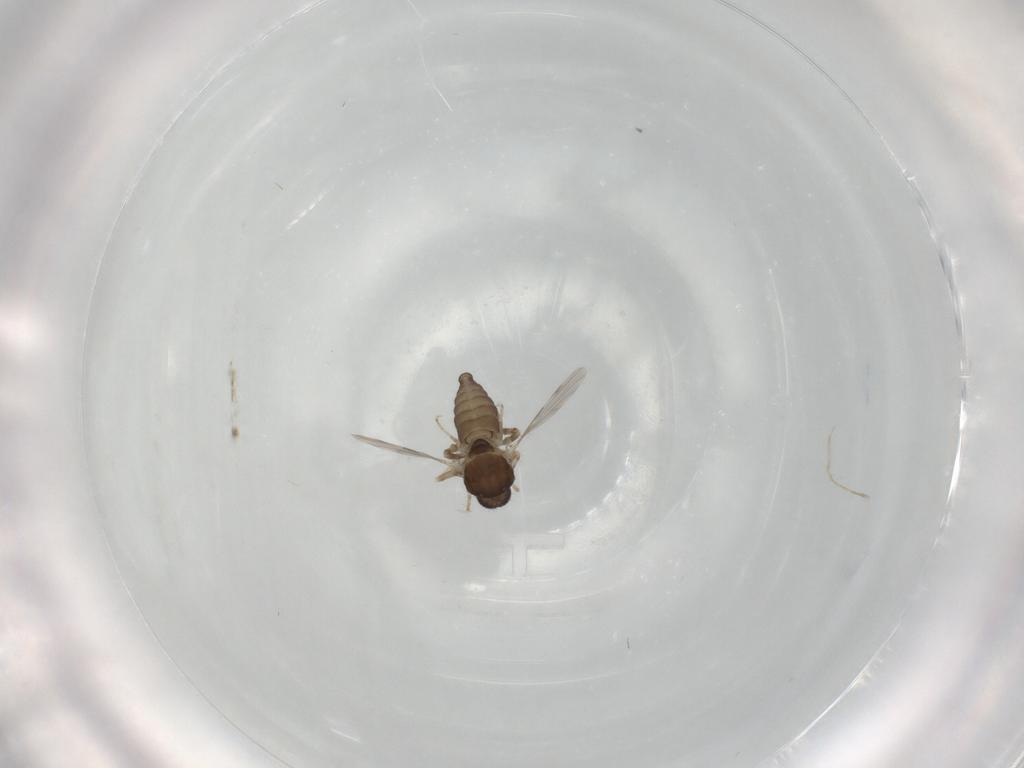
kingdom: Animalia
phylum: Arthropoda
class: Insecta
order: Diptera
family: Ceratopogonidae
